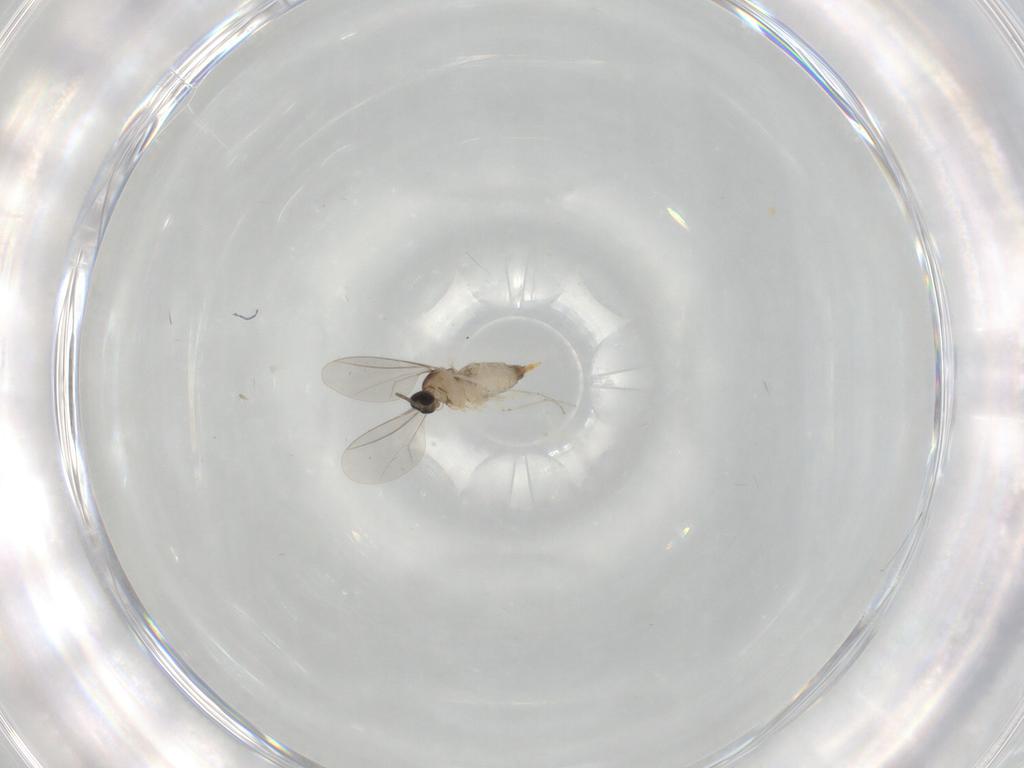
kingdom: Animalia
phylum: Arthropoda
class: Insecta
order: Diptera
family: Cecidomyiidae
